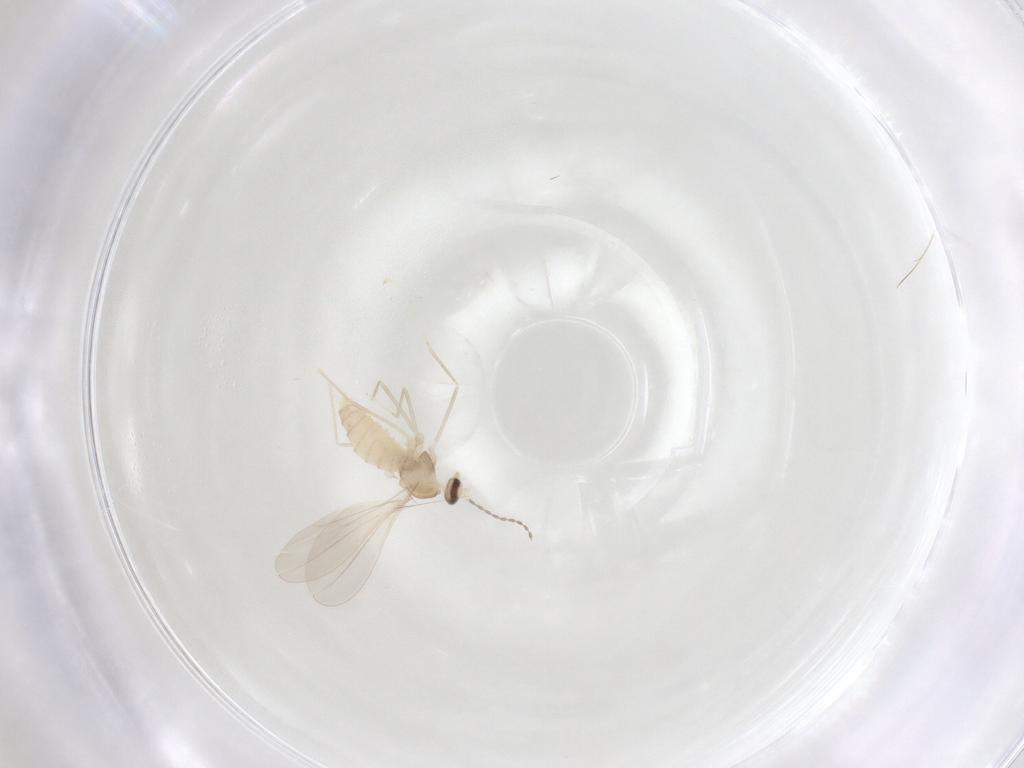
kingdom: Animalia
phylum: Arthropoda
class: Insecta
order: Diptera
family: Cecidomyiidae
